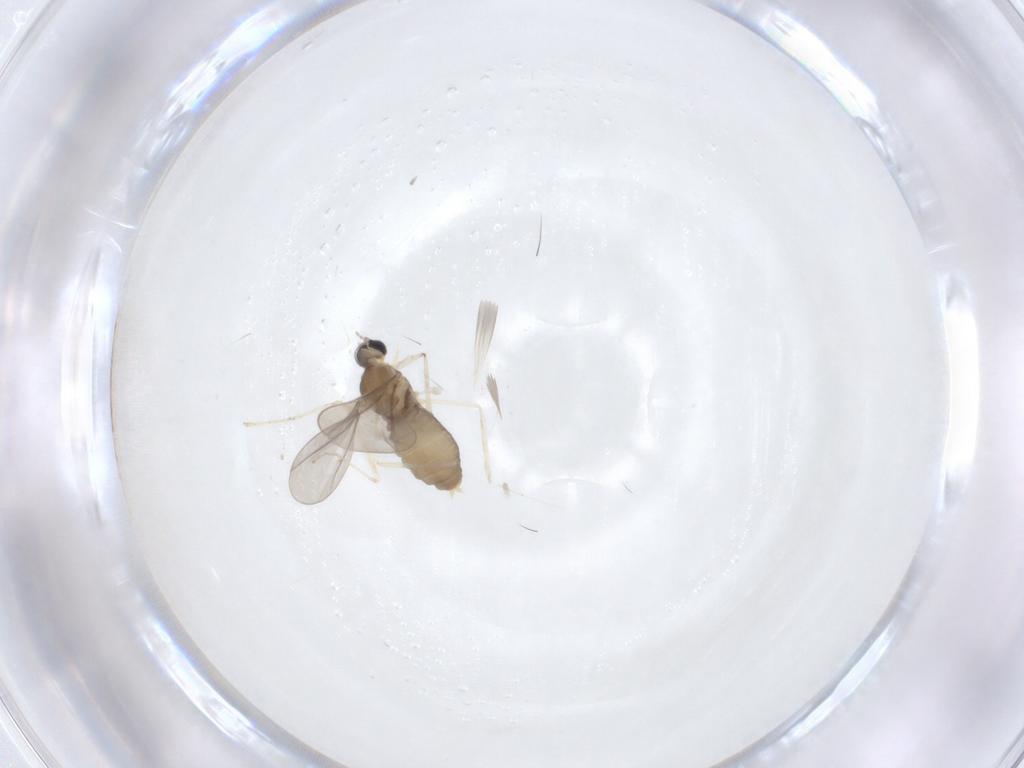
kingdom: Animalia
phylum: Arthropoda
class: Insecta
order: Diptera
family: Cecidomyiidae
